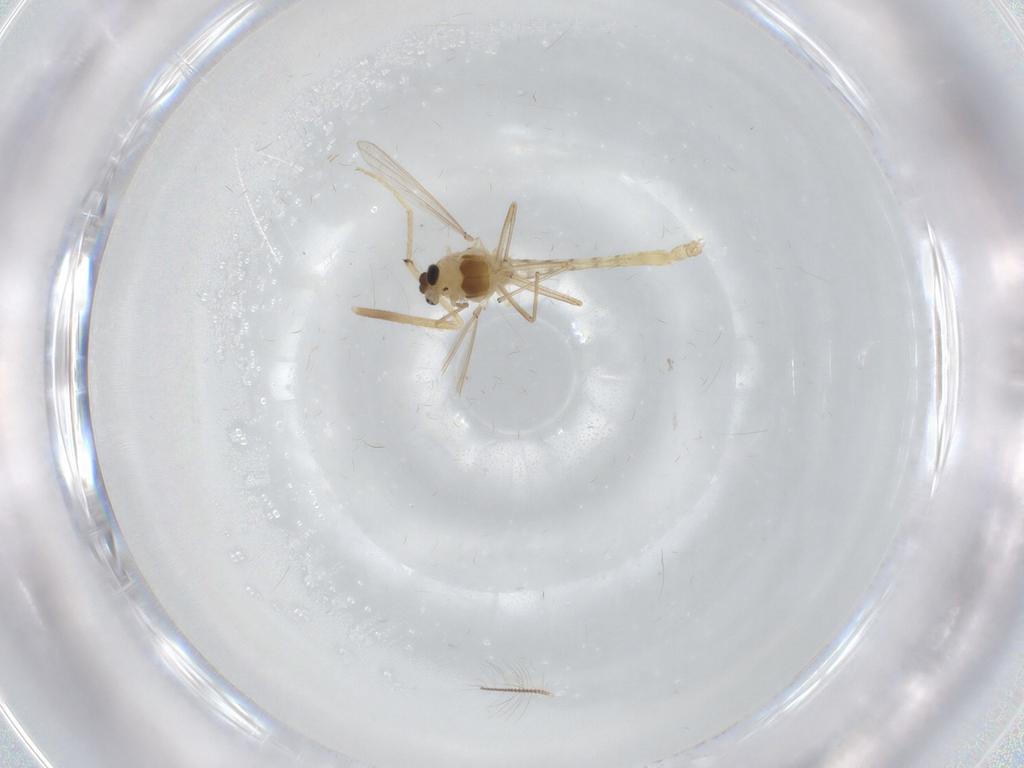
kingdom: Animalia
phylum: Arthropoda
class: Insecta
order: Diptera
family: Chironomidae
